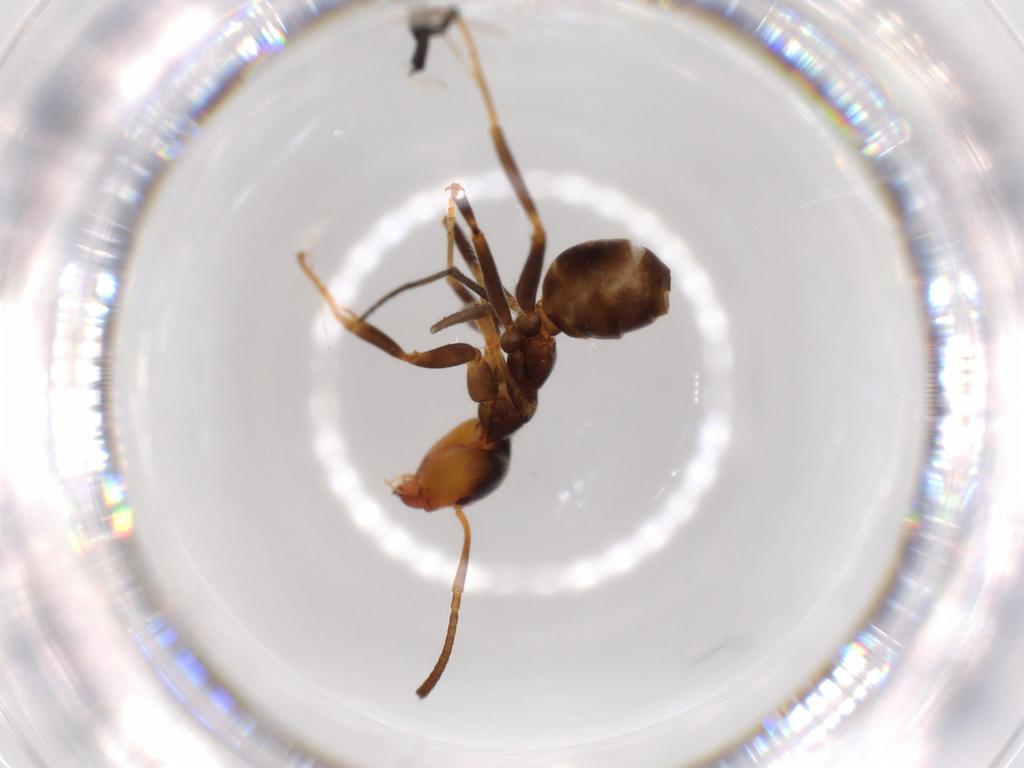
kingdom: Animalia
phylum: Arthropoda
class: Insecta
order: Hymenoptera
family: Formicidae
